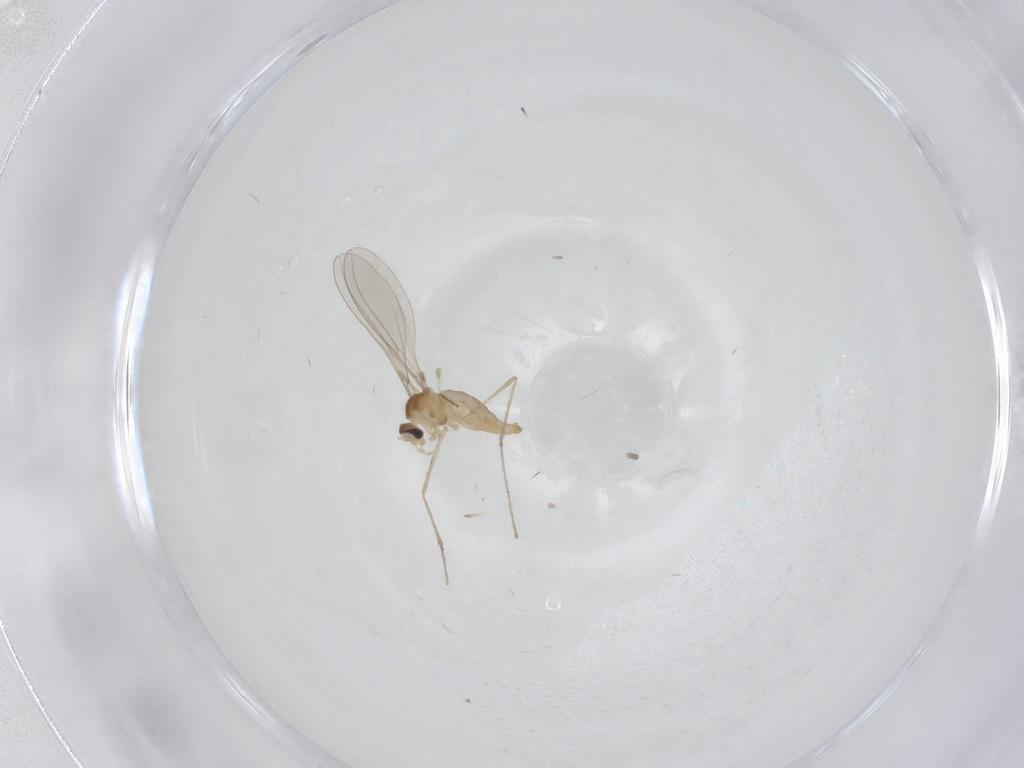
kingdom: Animalia
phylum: Arthropoda
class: Insecta
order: Diptera
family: Cecidomyiidae
